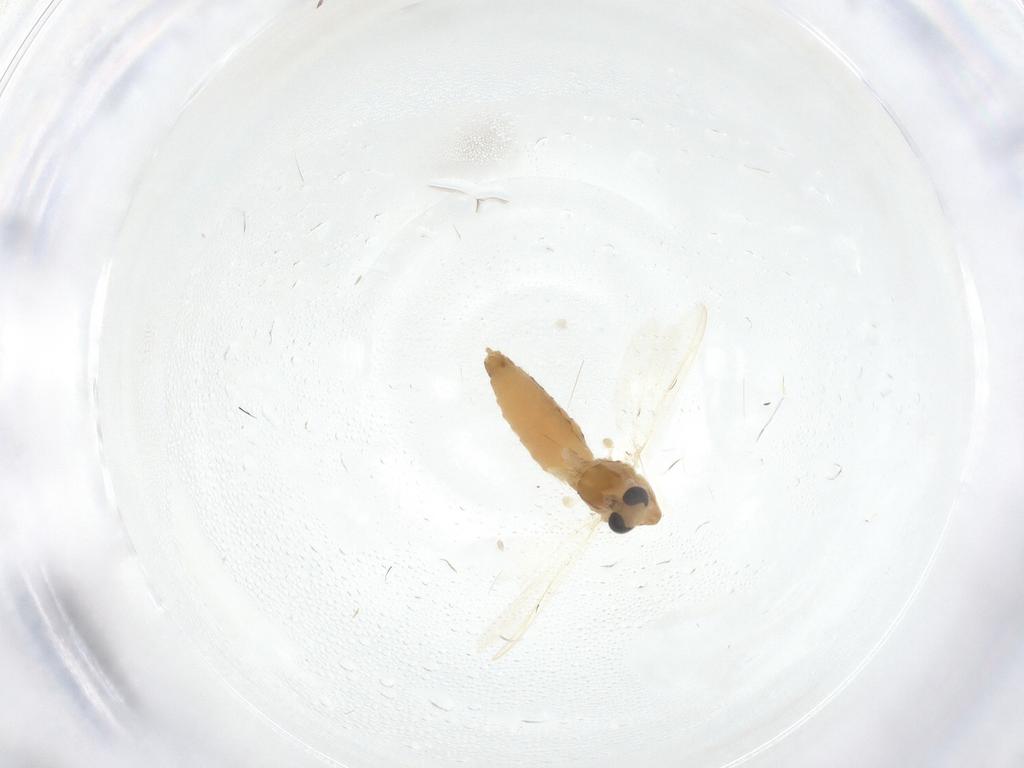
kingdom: Animalia
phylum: Arthropoda
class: Insecta
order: Diptera
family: Chironomidae
